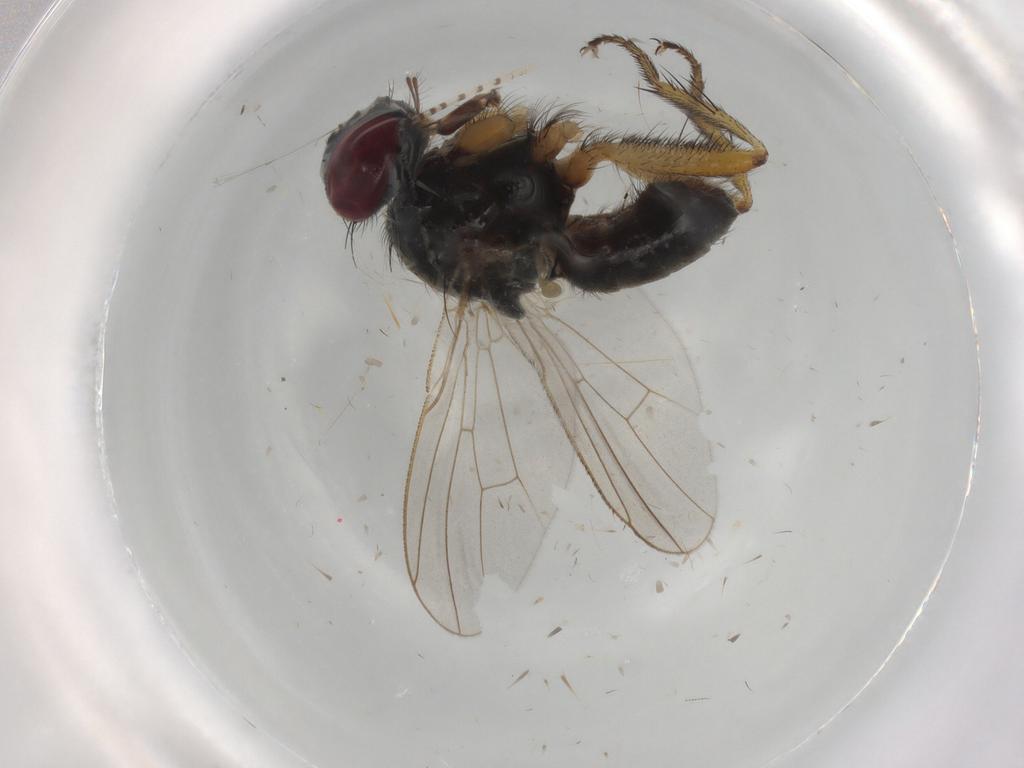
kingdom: Animalia
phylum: Arthropoda
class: Insecta
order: Diptera
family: Muscidae
